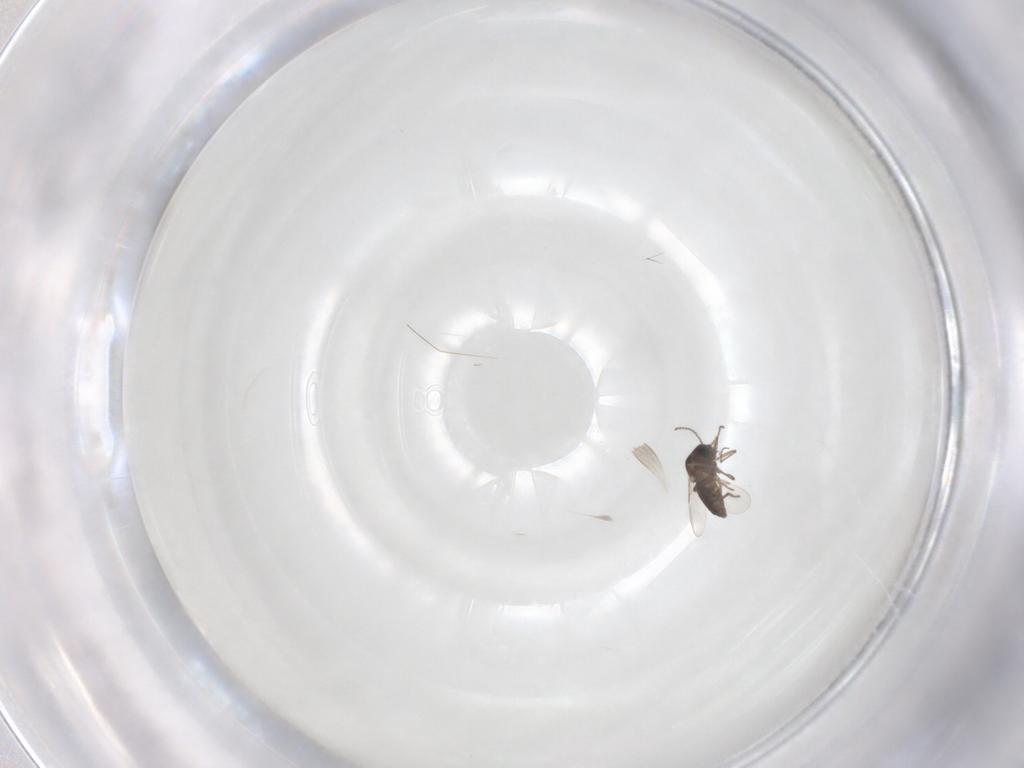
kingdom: Animalia
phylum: Arthropoda
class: Insecta
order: Diptera
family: Ceratopogonidae
